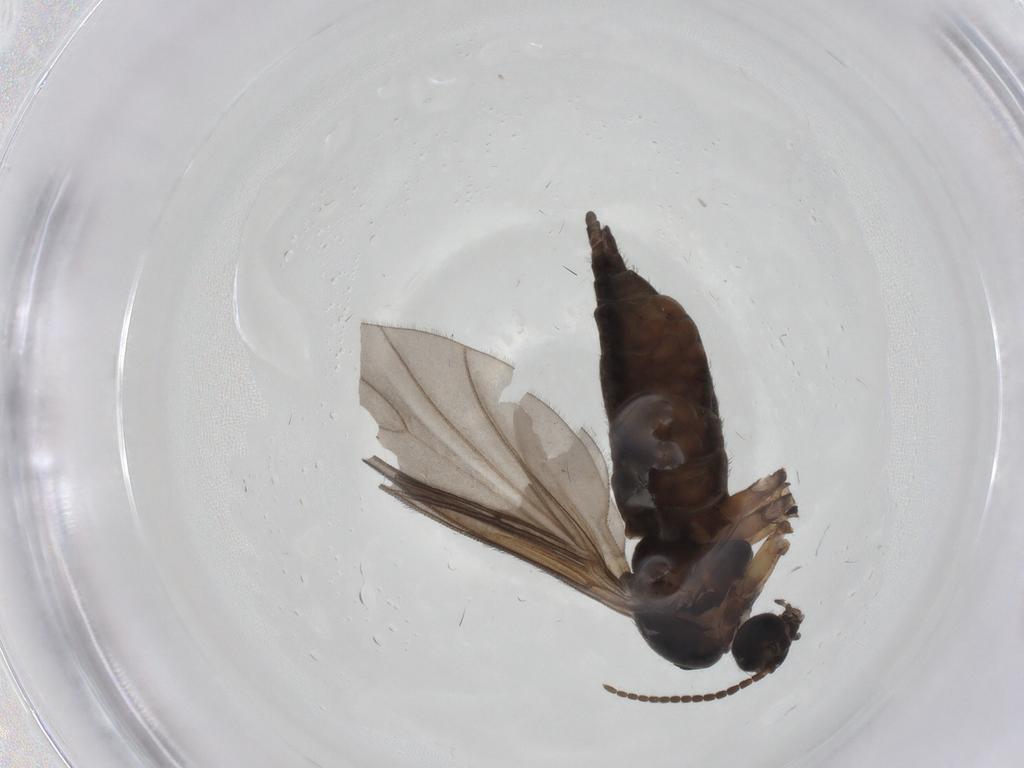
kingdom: Animalia
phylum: Arthropoda
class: Insecta
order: Diptera
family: Sciaridae
